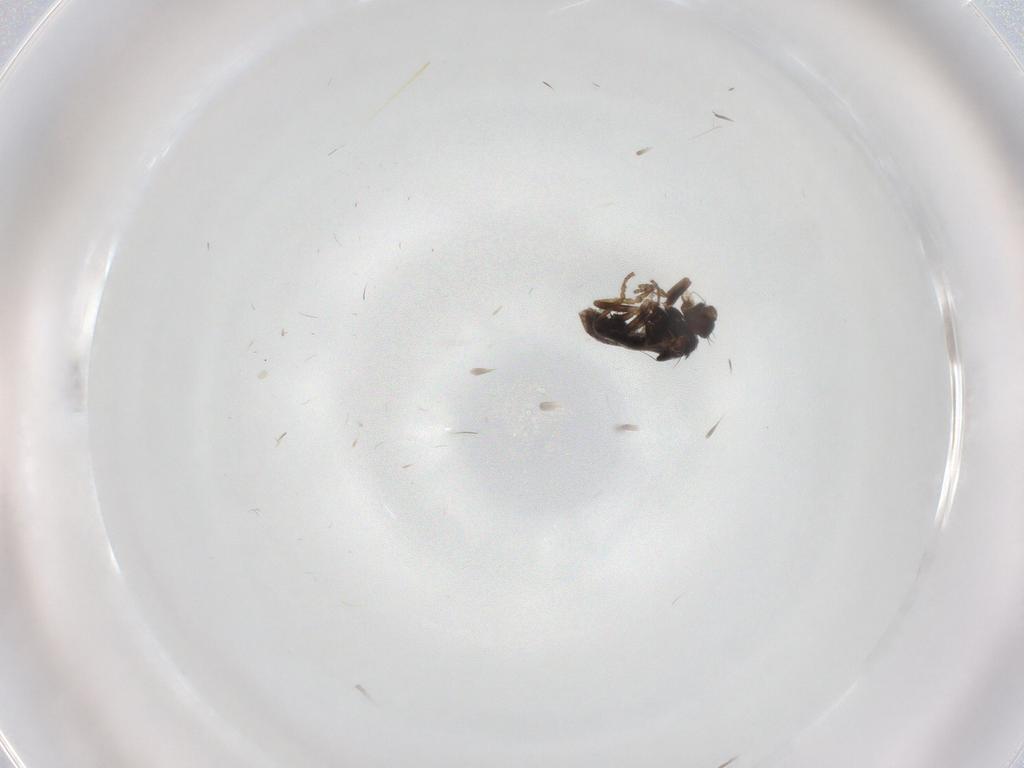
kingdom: Animalia
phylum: Arthropoda
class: Insecta
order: Diptera
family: Sphaeroceridae
